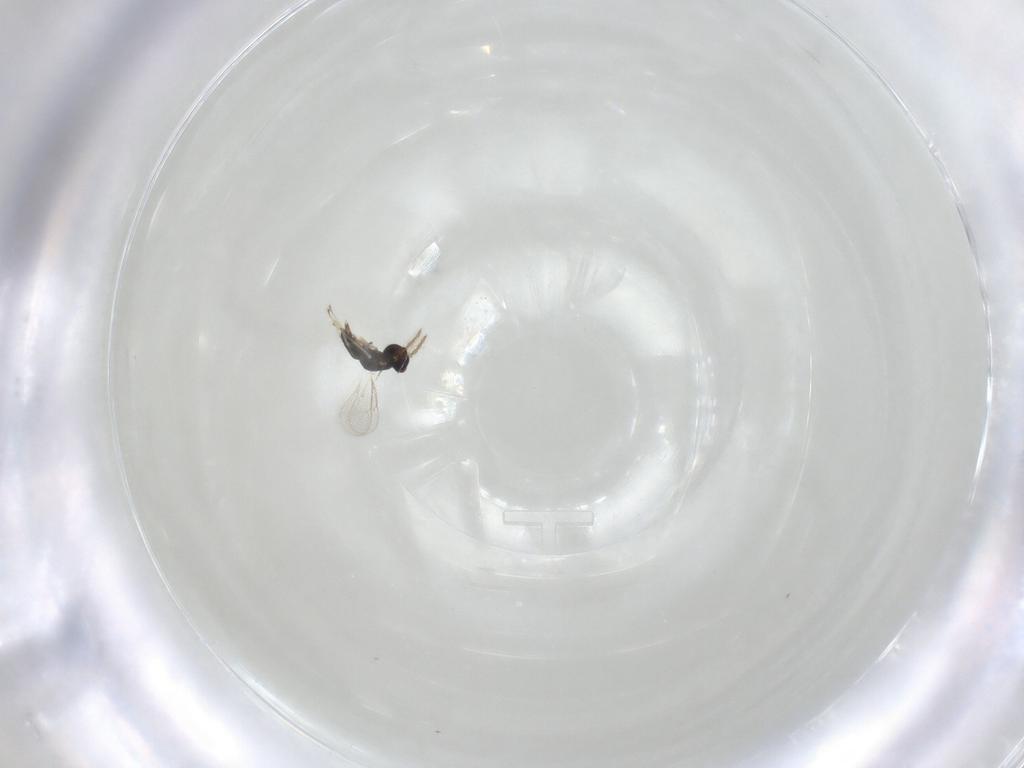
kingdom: Animalia
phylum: Arthropoda
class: Insecta
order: Hymenoptera
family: Eulophidae
